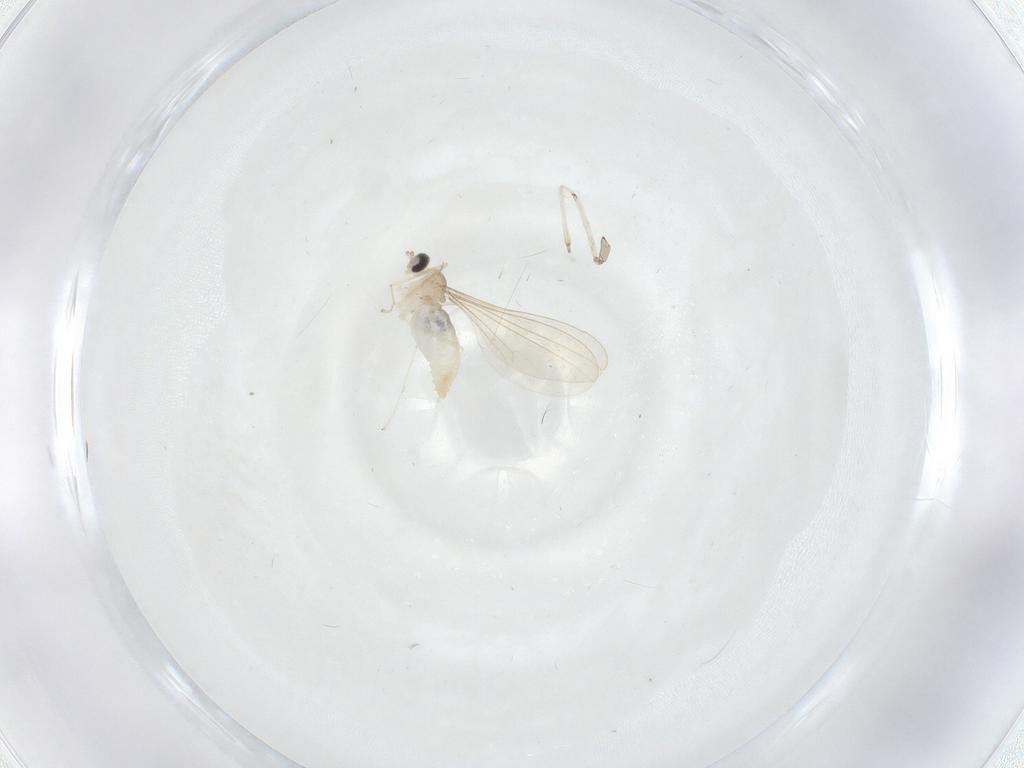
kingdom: Animalia
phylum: Arthropoda
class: Insecta
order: Diptera
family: Cecidomyiidae
